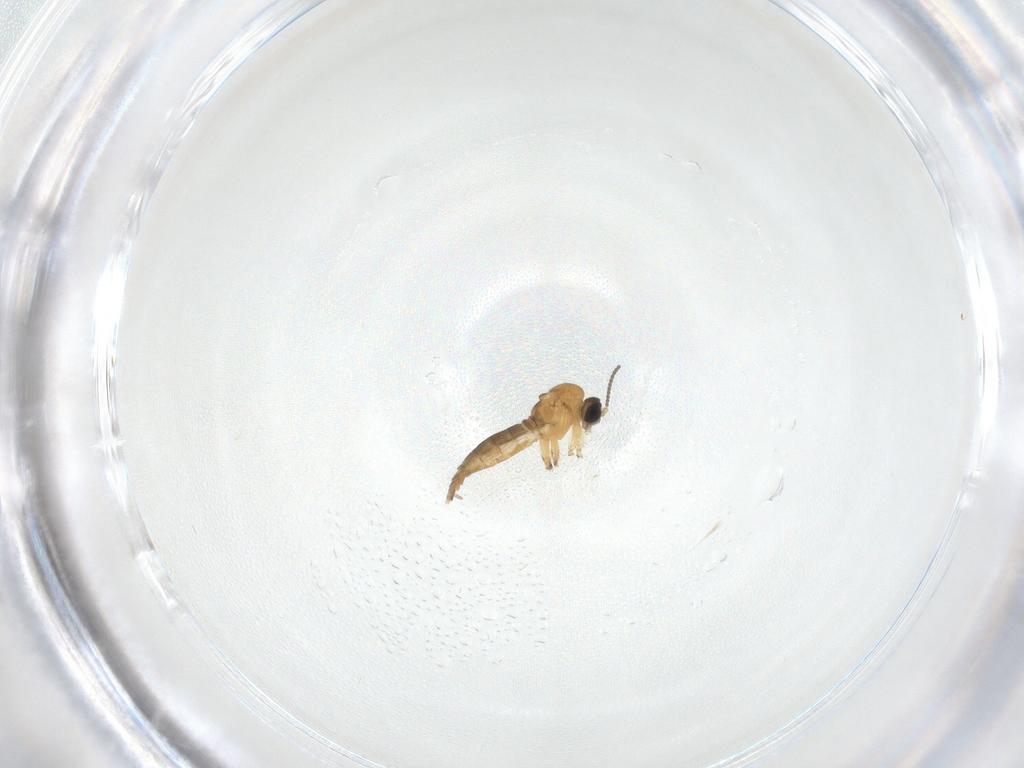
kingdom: Animalia
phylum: Arthropoda
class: Insecta
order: Diptera
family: Sciaridae
